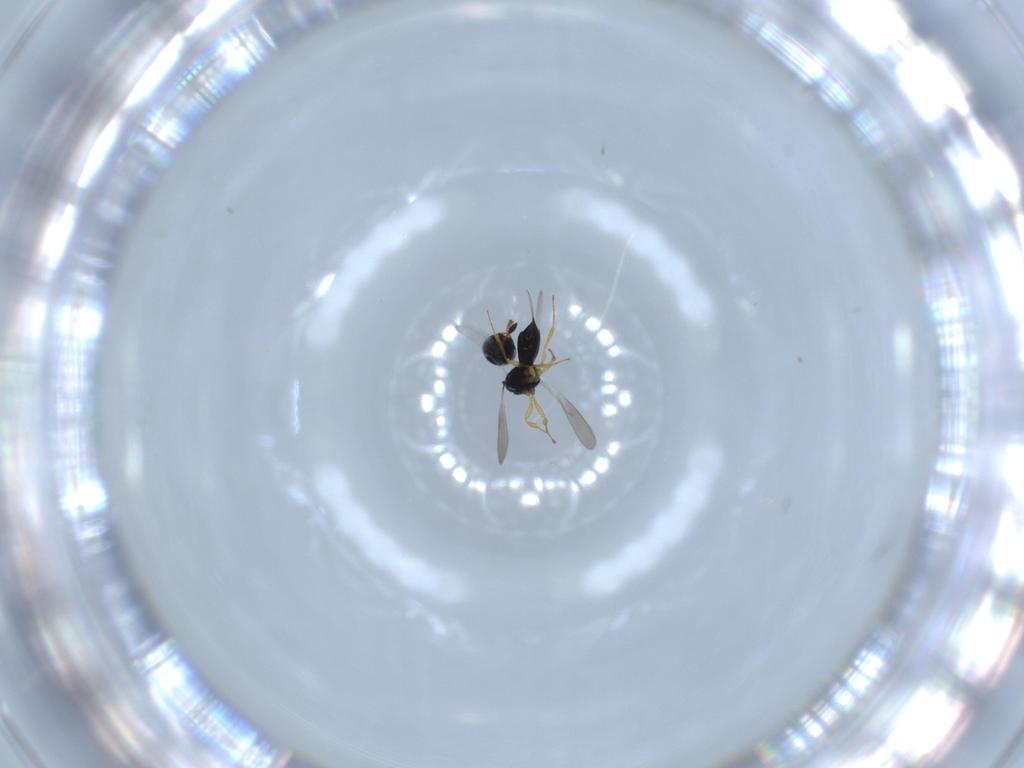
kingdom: Animalia
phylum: Arthropoda
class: Insecta
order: Hymenoptera
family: Scelionidae
